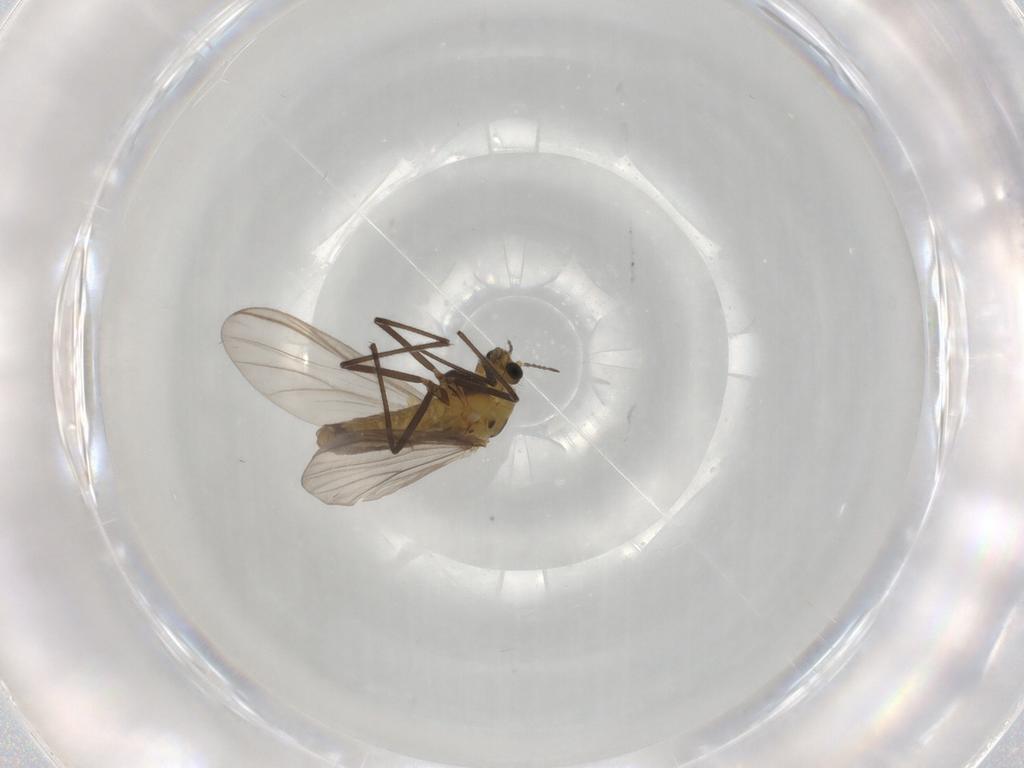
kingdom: Animalia
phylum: Arthropoda
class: Insecta
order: Diptera
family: Chironomidae
